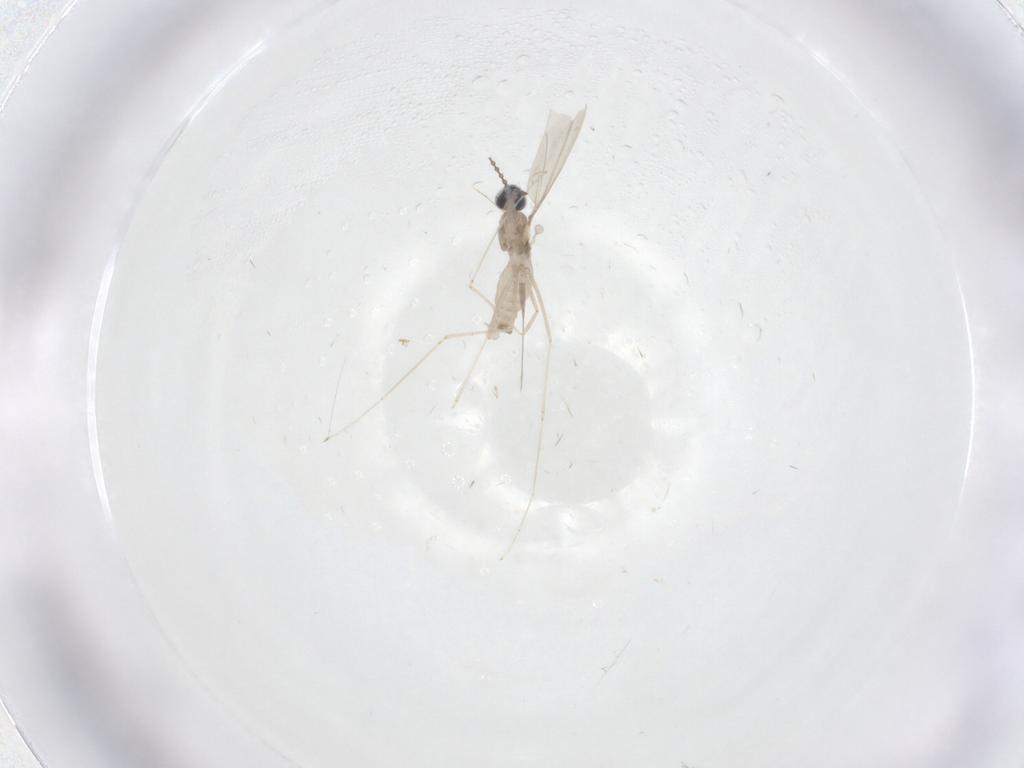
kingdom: Animalia
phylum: Arthropoda
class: Insecta
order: Diptera
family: Cecidomyiidae
